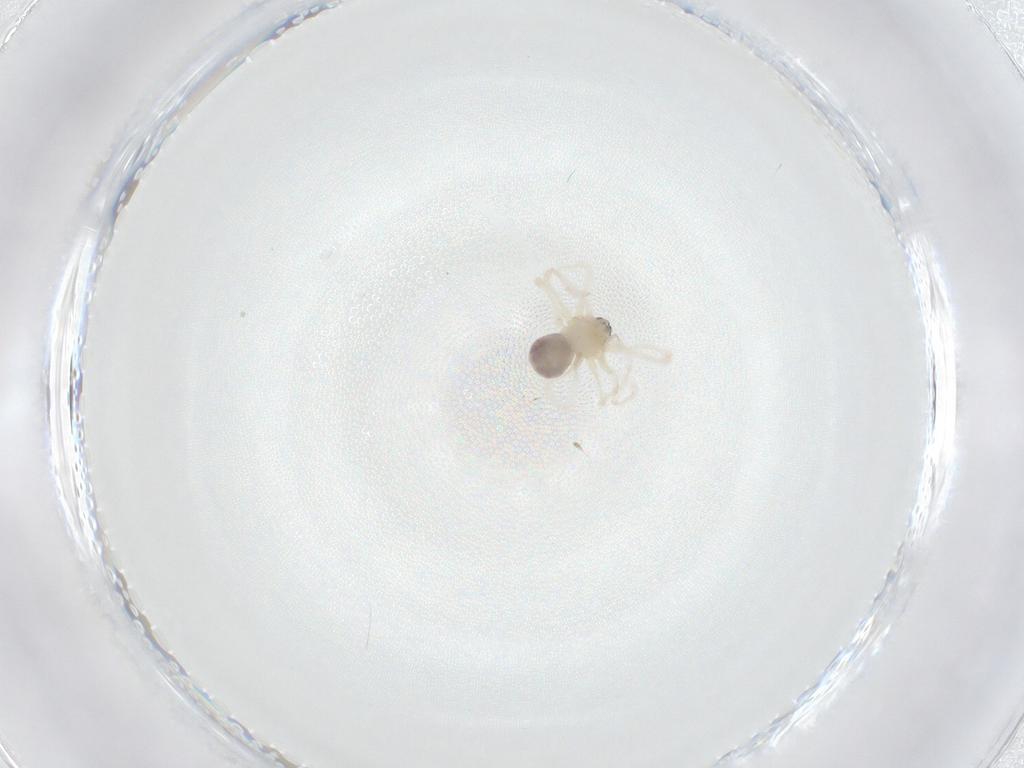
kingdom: Animalia
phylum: Arthropoda
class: Arachnida
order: Araneae
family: Pholcidae
